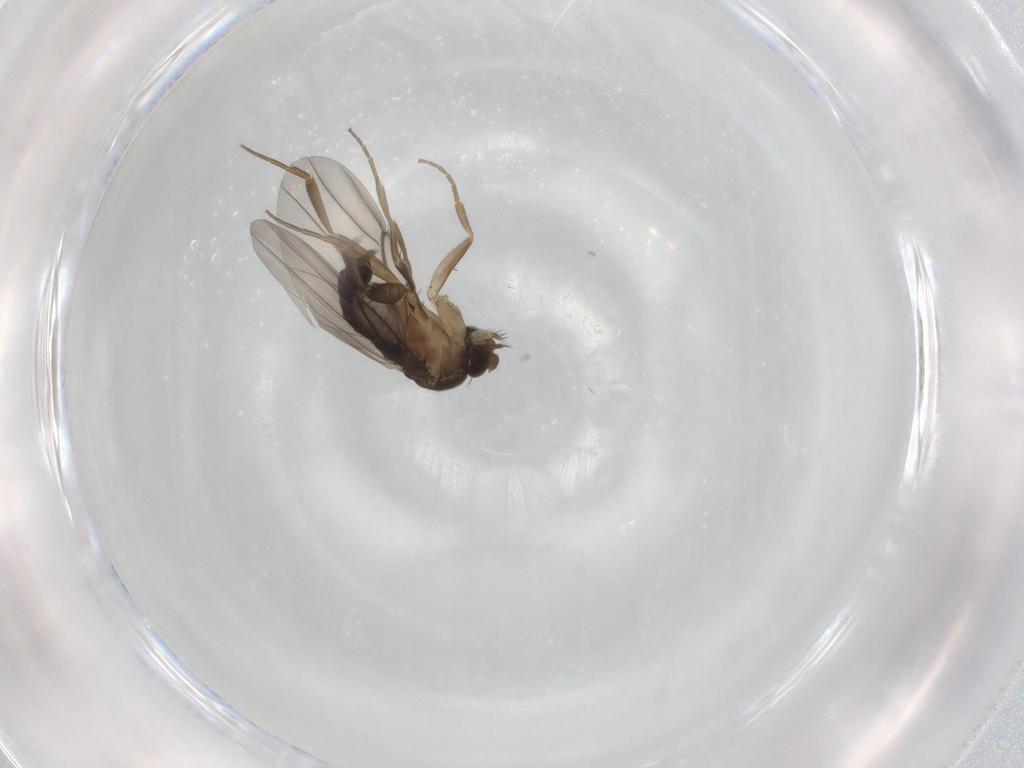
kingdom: Animalia
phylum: Arthropoda
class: Insecta
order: Diptera
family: Phoridae
